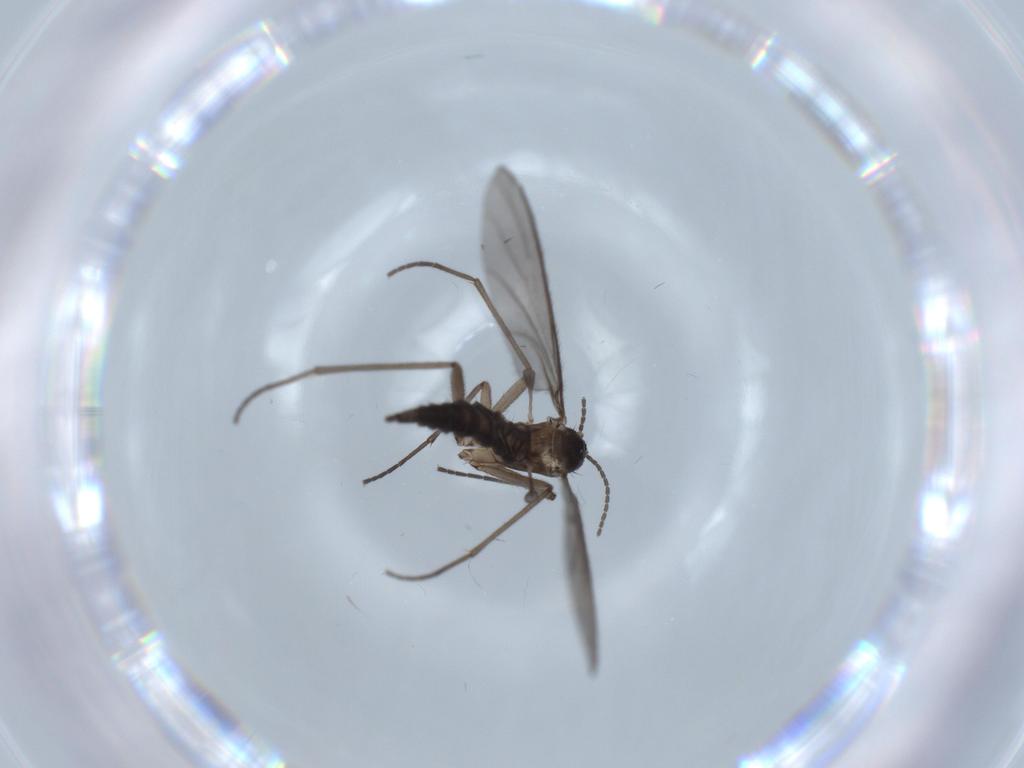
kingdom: Animalia
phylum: Arthropoda
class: Insecta
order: Diptera
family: Sciaridae
